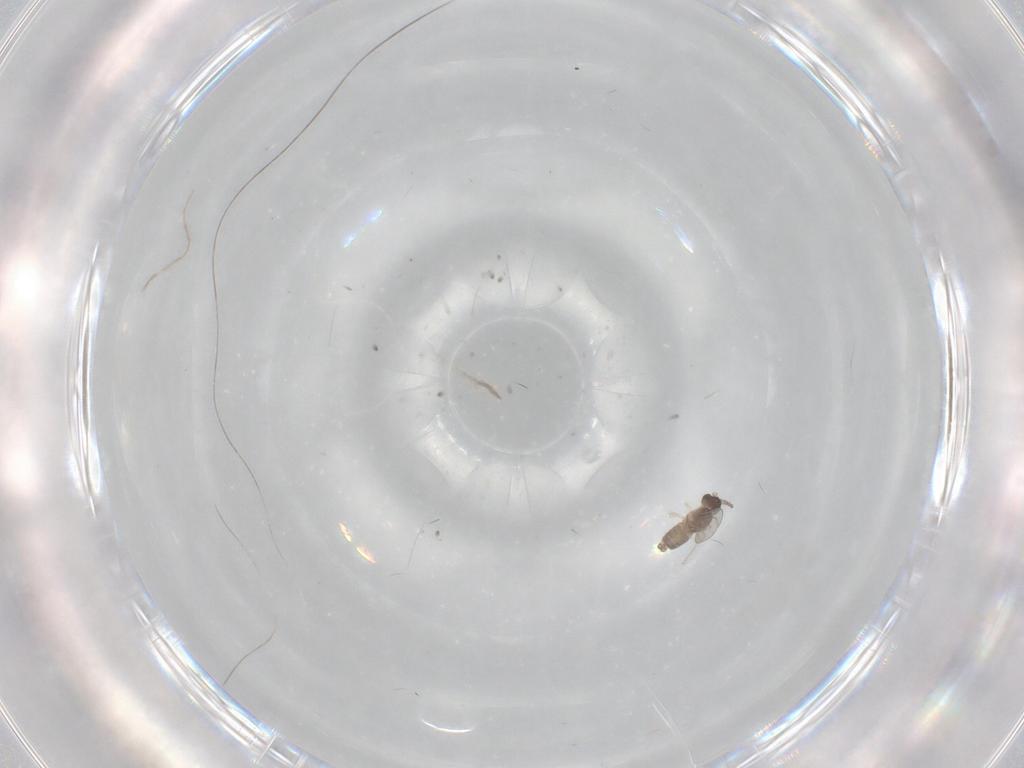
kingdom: Animalia
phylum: Arthropoda
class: Insecta
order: Diptera
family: Cecidomyiidae
